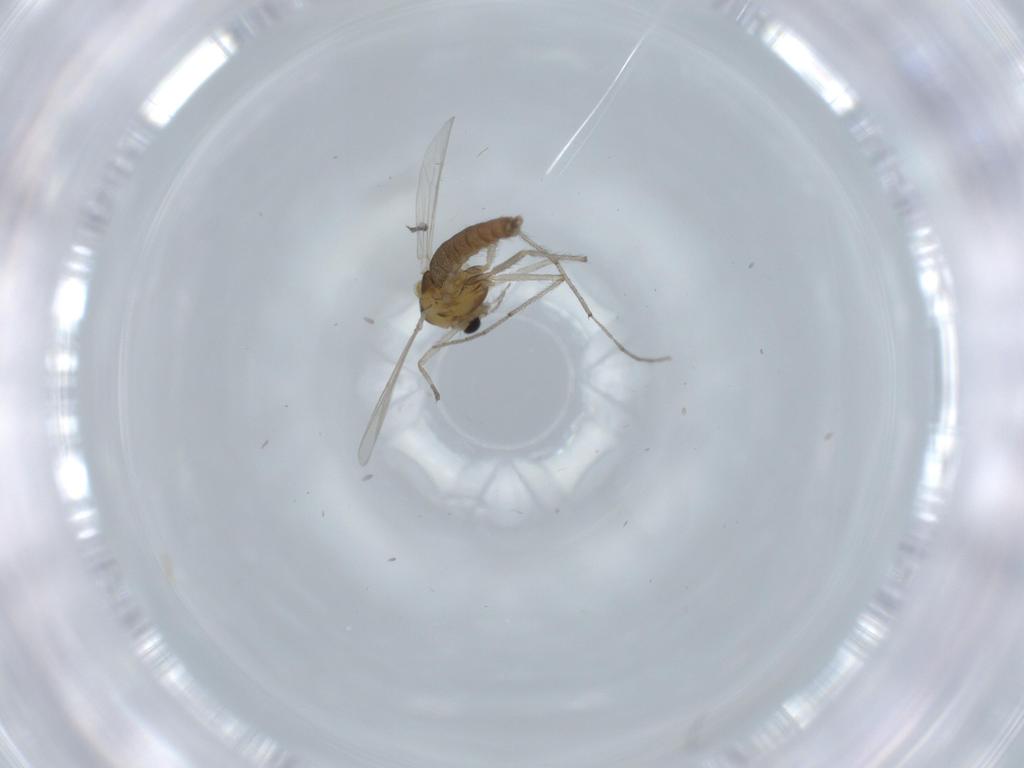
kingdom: Animalia
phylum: Arthropoda
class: Insecta
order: Diptera
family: Chironomidae
